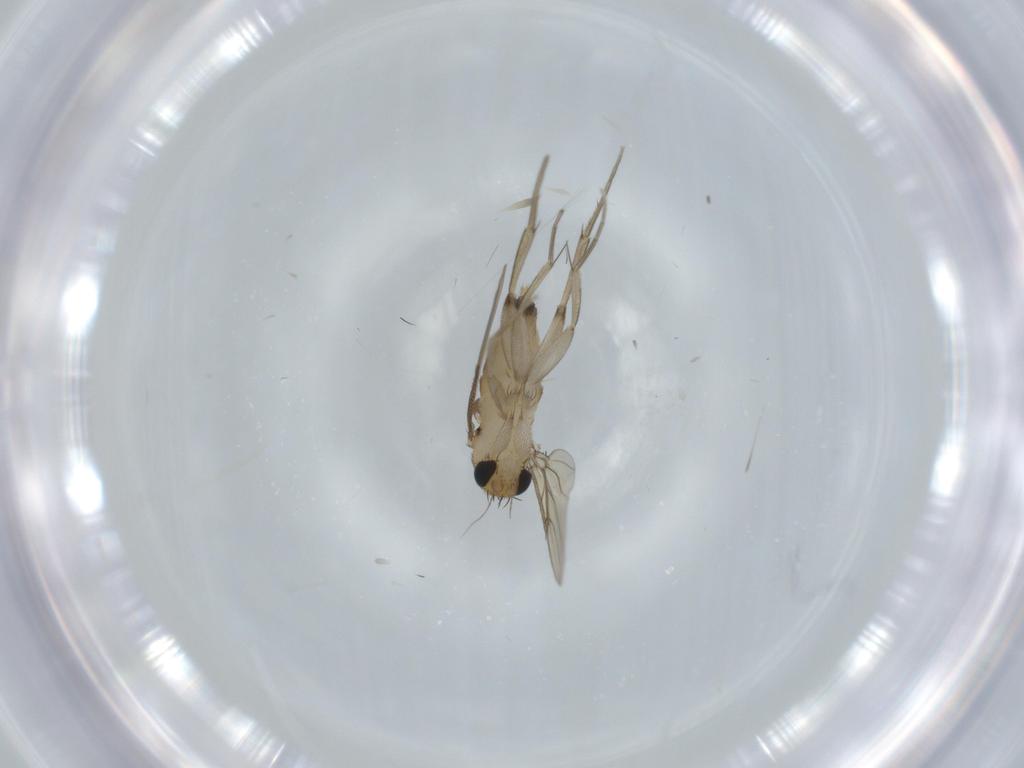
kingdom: Animalia
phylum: Arthropoda
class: Insecta
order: Diptera
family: Phoridae
